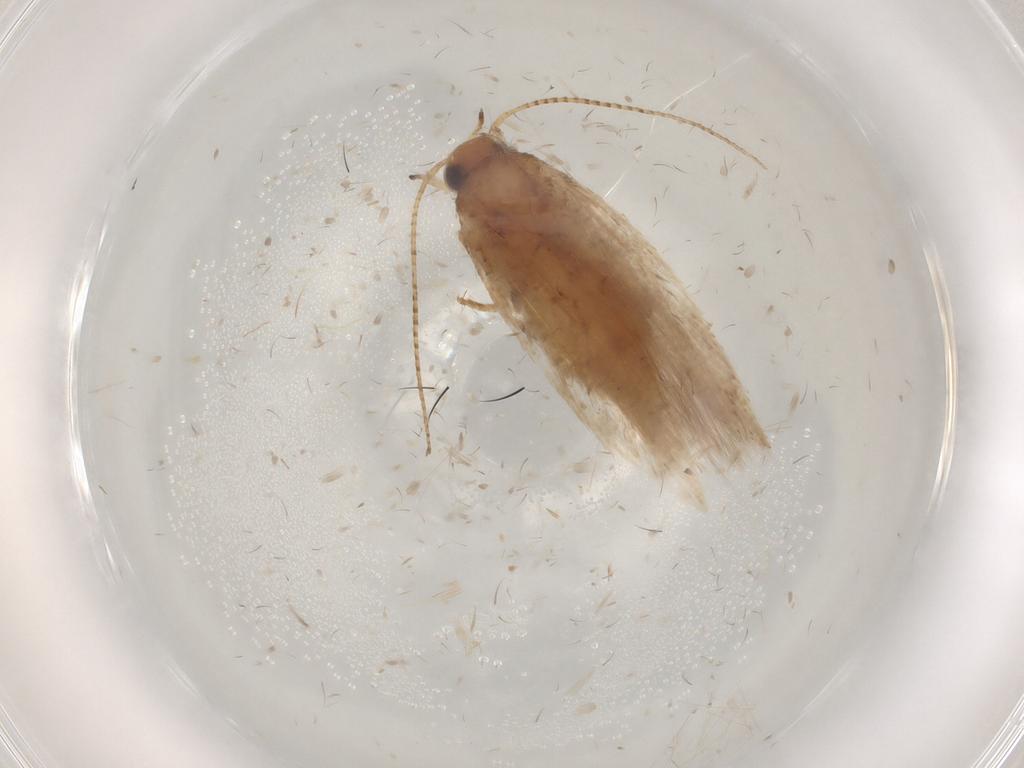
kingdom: Animalia
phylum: Arthropoda
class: Insecta
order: Lepidoptera
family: Gelechiidae
